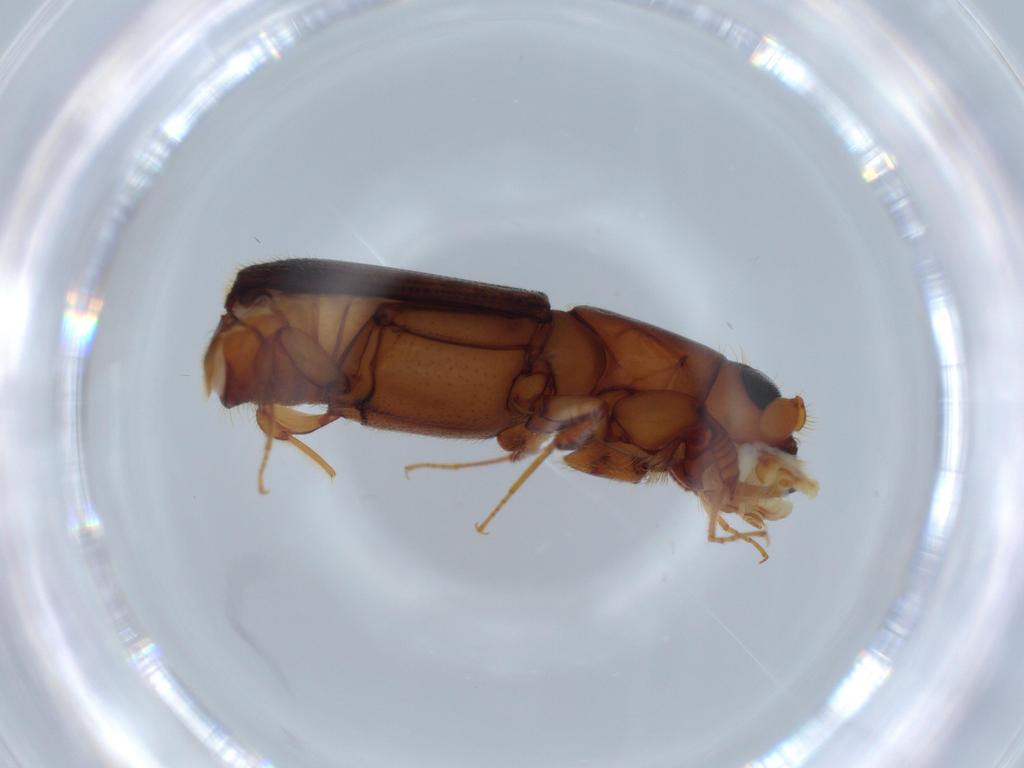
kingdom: Animalia
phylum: Arthropoda
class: Insecta
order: Coleoptera
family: Curculionidae
